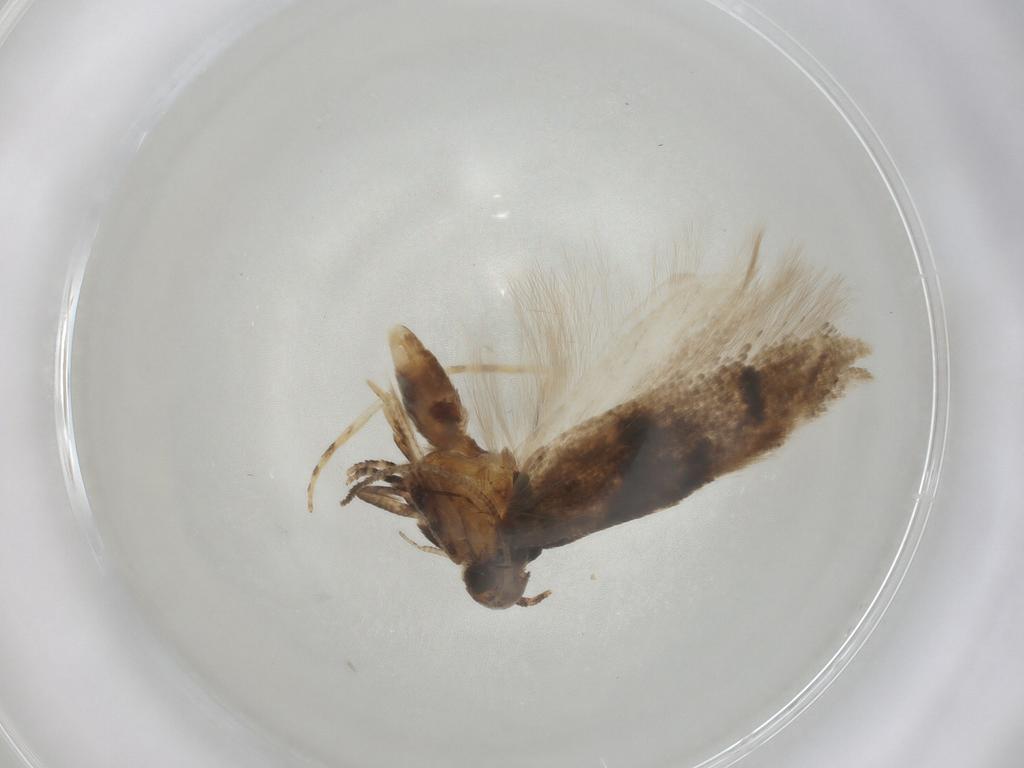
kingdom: Animalia
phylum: Arthropoda
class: Insecta
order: Lepidoptera
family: Gelechiidae
